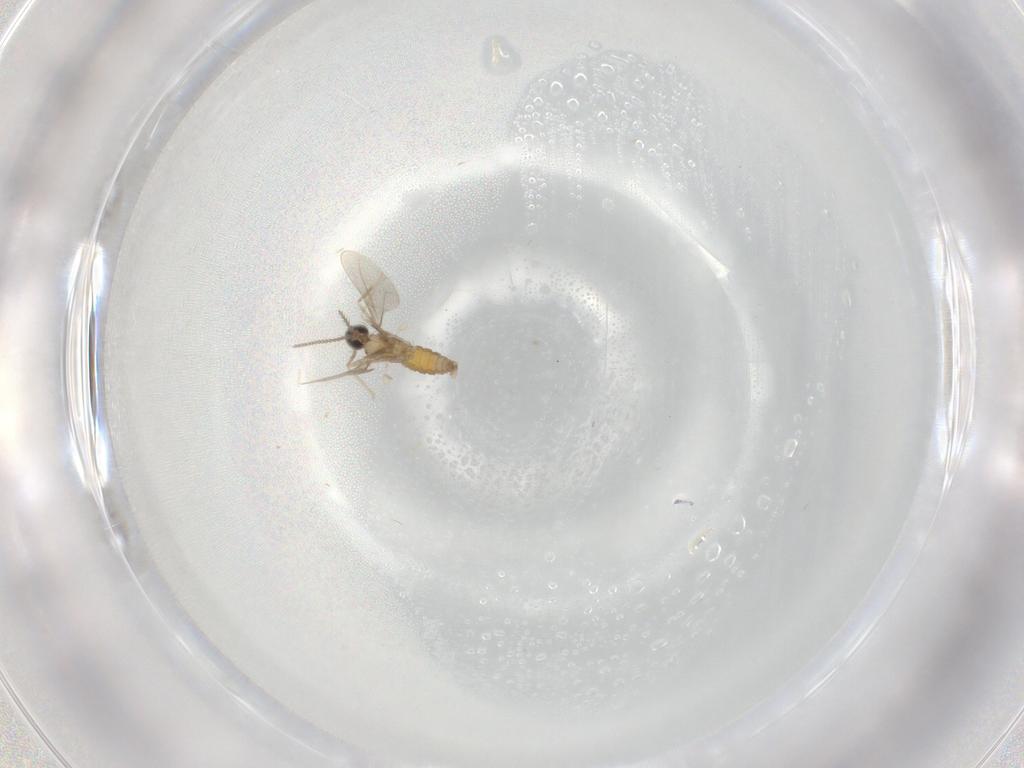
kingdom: Animalia
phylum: Arthropoda
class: Insecta
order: Diptera
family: Cecidomyiidae
